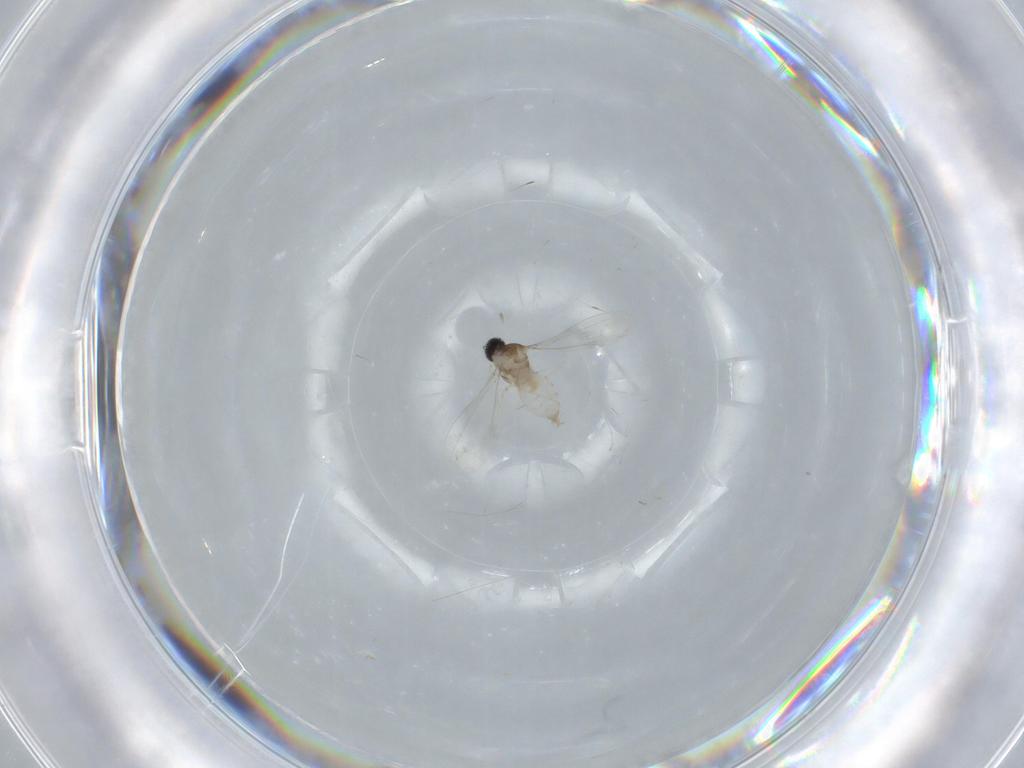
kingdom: Animalia
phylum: Arthropoda
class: Insecta
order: Diptera
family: Cecidomyiidae
